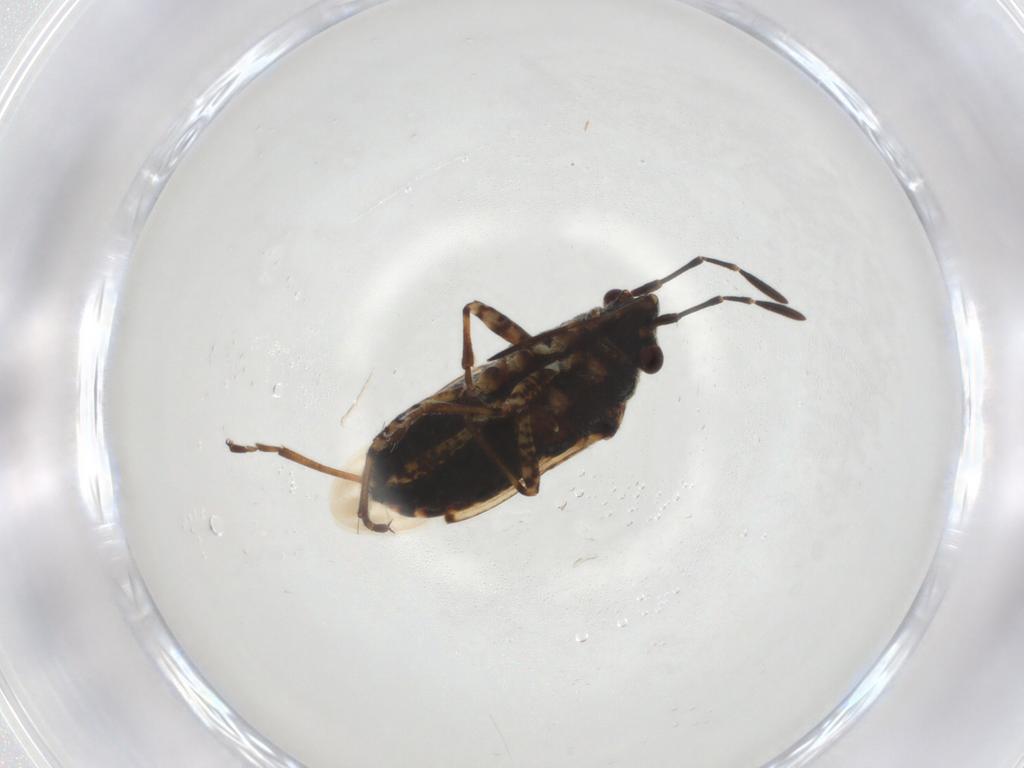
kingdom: Animalia
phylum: Arthropoda
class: Insecta
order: Hemiptera
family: Lygaeidae
